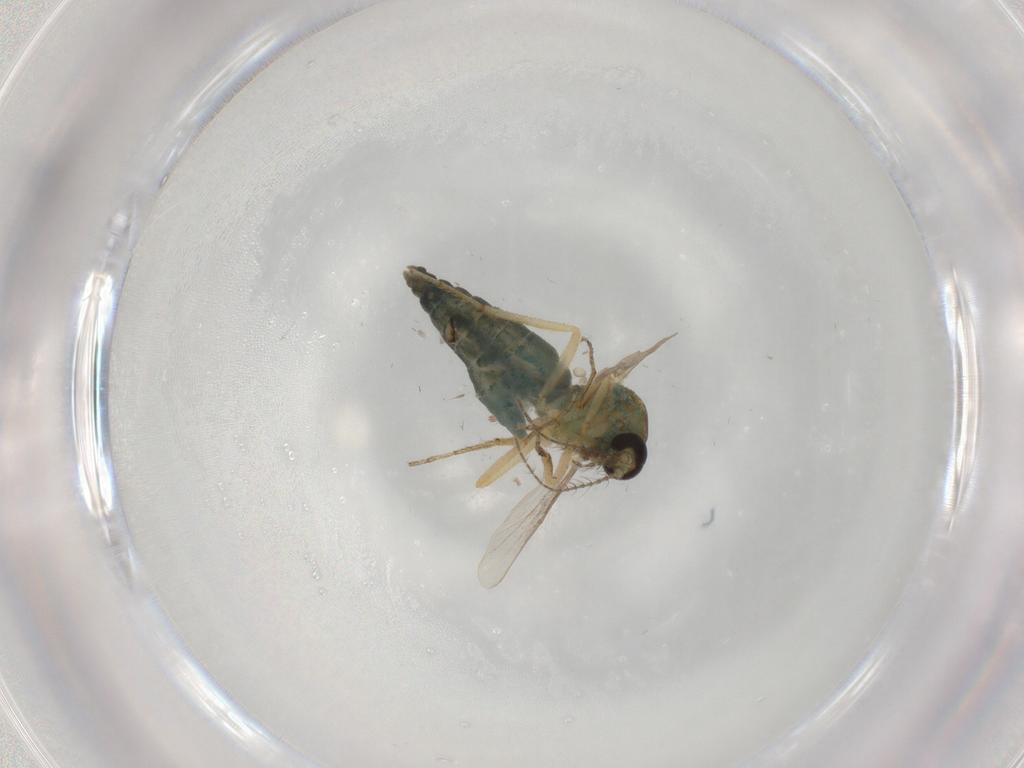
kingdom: Animalia
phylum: Arthropoda
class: Insecta
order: Diptera
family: Ceratopogonidae
